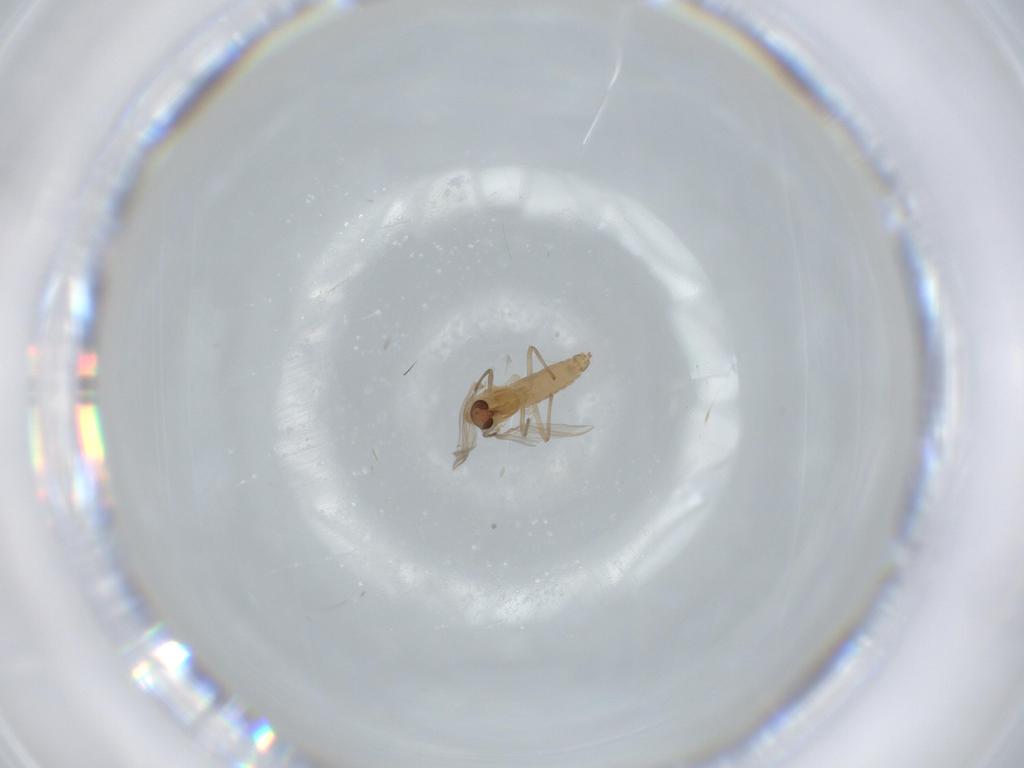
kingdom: Animalia
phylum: Arthropoda
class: Insecta
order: Diptera
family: Chironomidae
